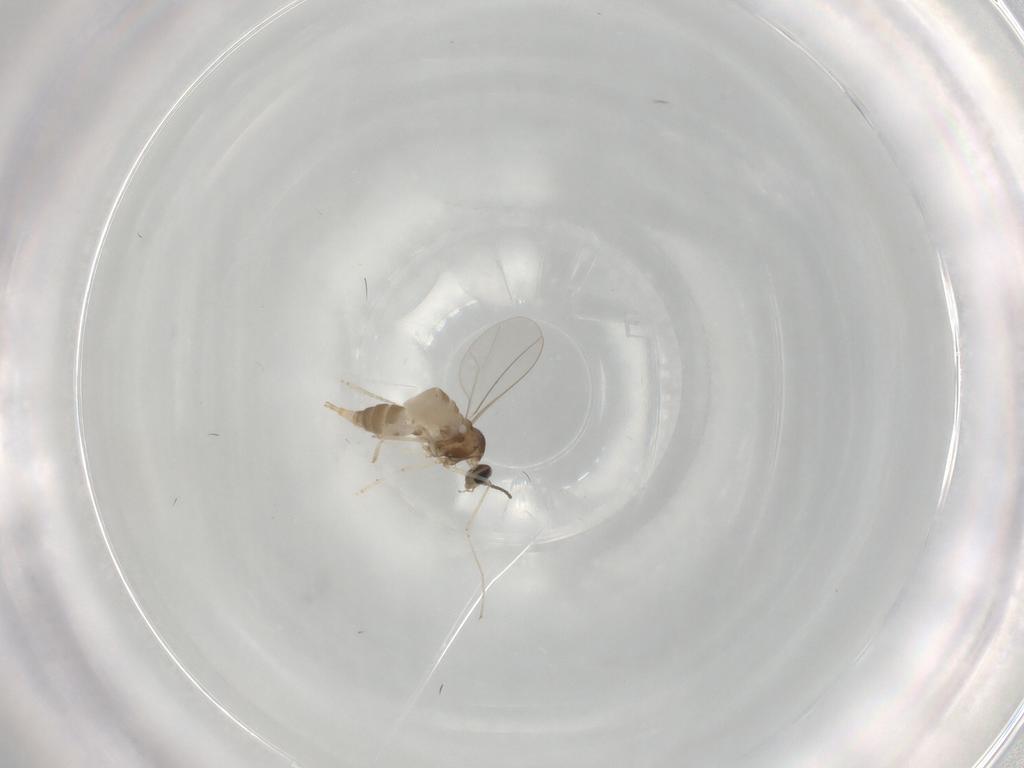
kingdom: Animalia
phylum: Arthropoda
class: Insecta
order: Diptera
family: Cecidomyiidae
